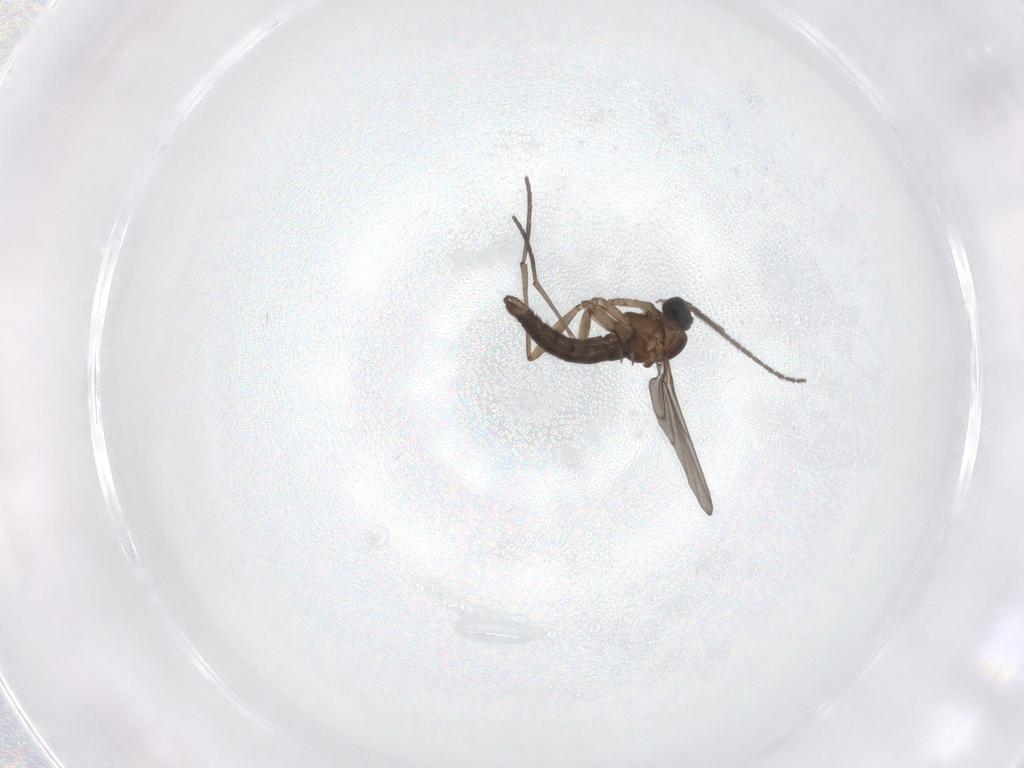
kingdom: Animalia
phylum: Arthropoda
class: Insecta
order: Diptera
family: Sciaridae
